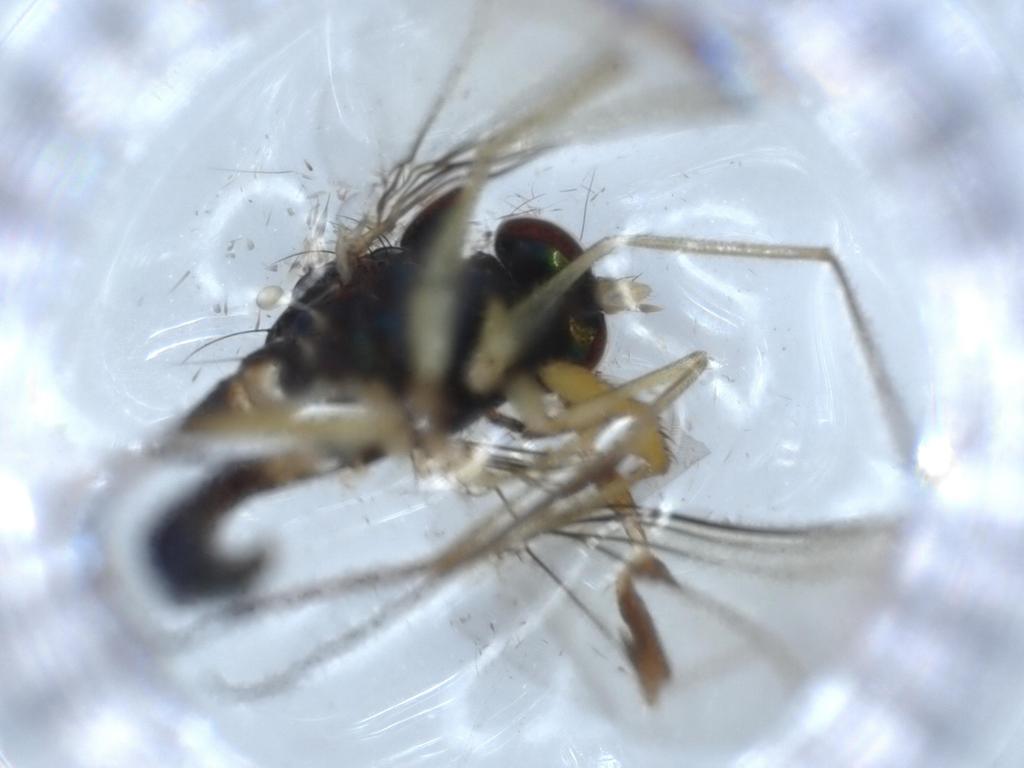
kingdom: Animalia
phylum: Arthropoda
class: Insecta
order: Diptera
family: Dolichopodidae
